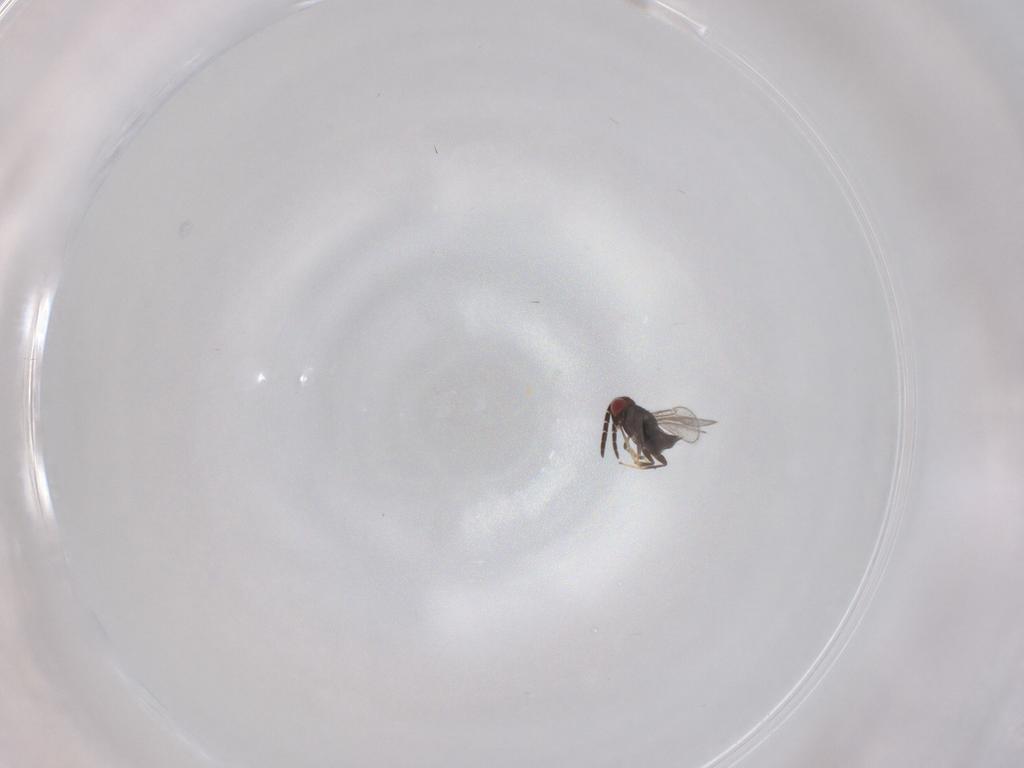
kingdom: Animalia
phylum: Arthropoda
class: Insecta
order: Hymenoptera
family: Aphelinidae
